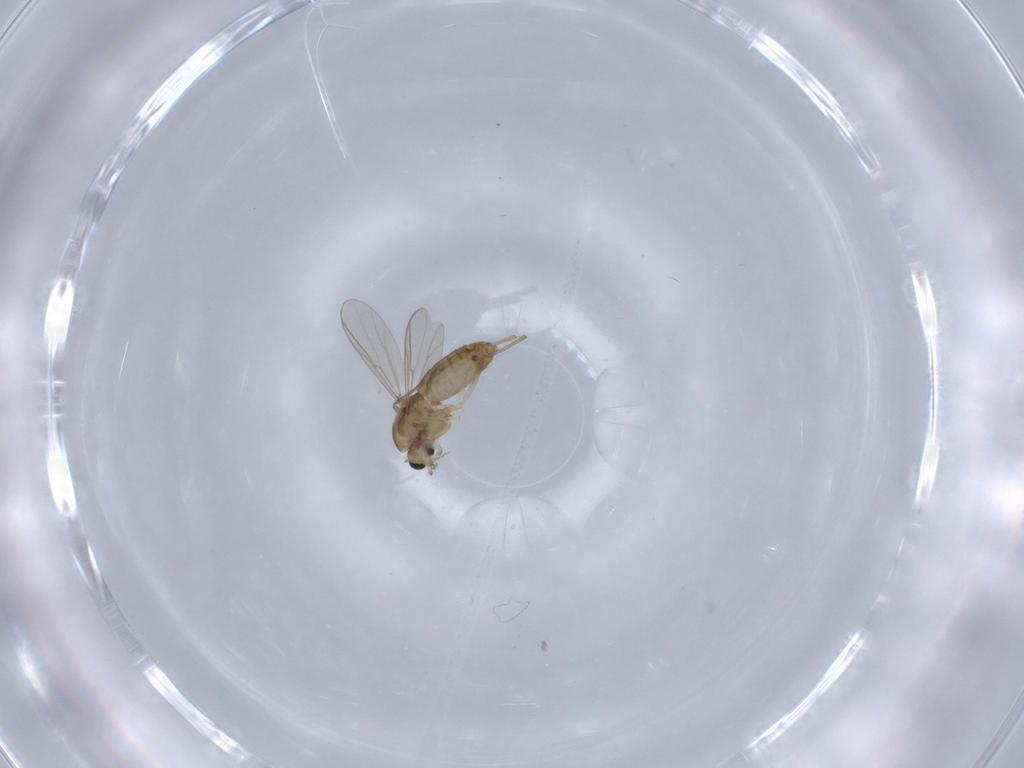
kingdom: Animalia
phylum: Arthropoda
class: Insecta
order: Diptera
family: Chironomidae
